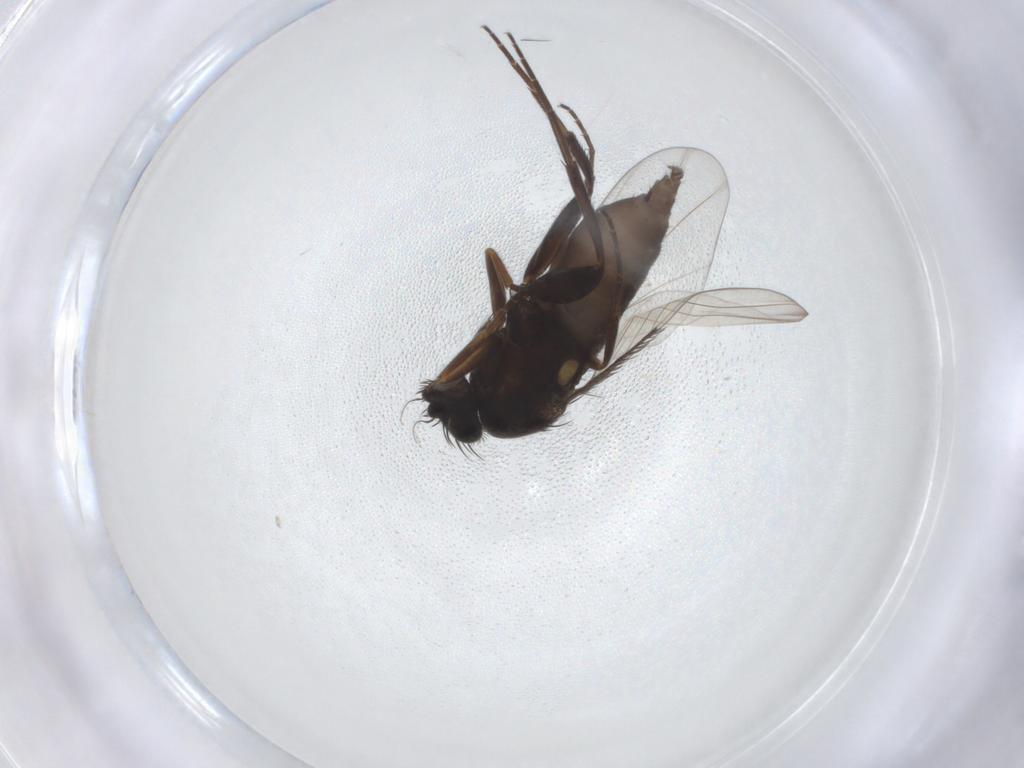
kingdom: Animalia
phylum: Arthropoda
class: Insecta
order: Diptera
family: Phoridae
